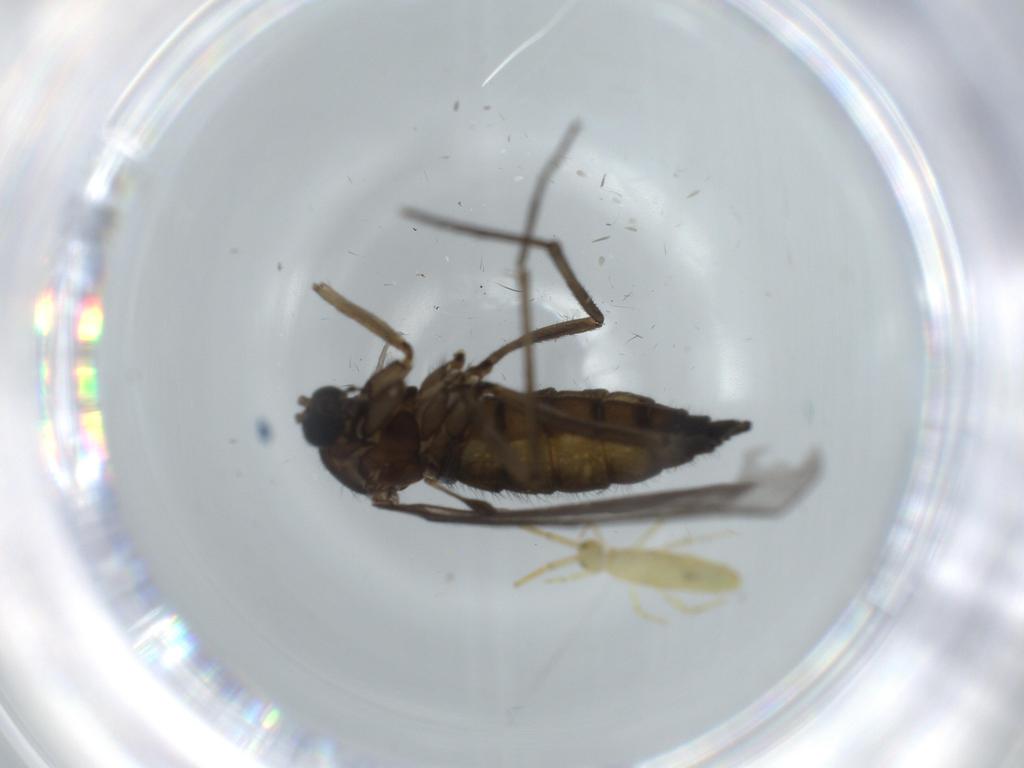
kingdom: Animalia
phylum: Arthropoda
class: Insecta
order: Diptera
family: Sciaridae
